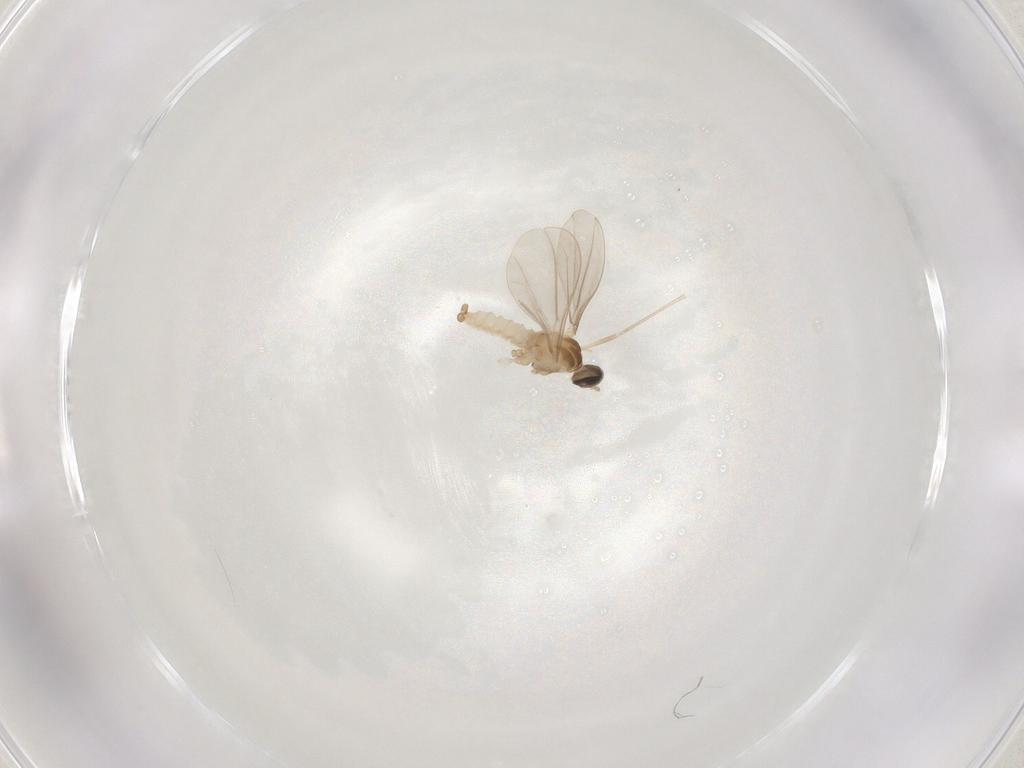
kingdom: Animalia
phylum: Arthropoda
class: Insecta
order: Diptera
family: Cecidomyiidae
